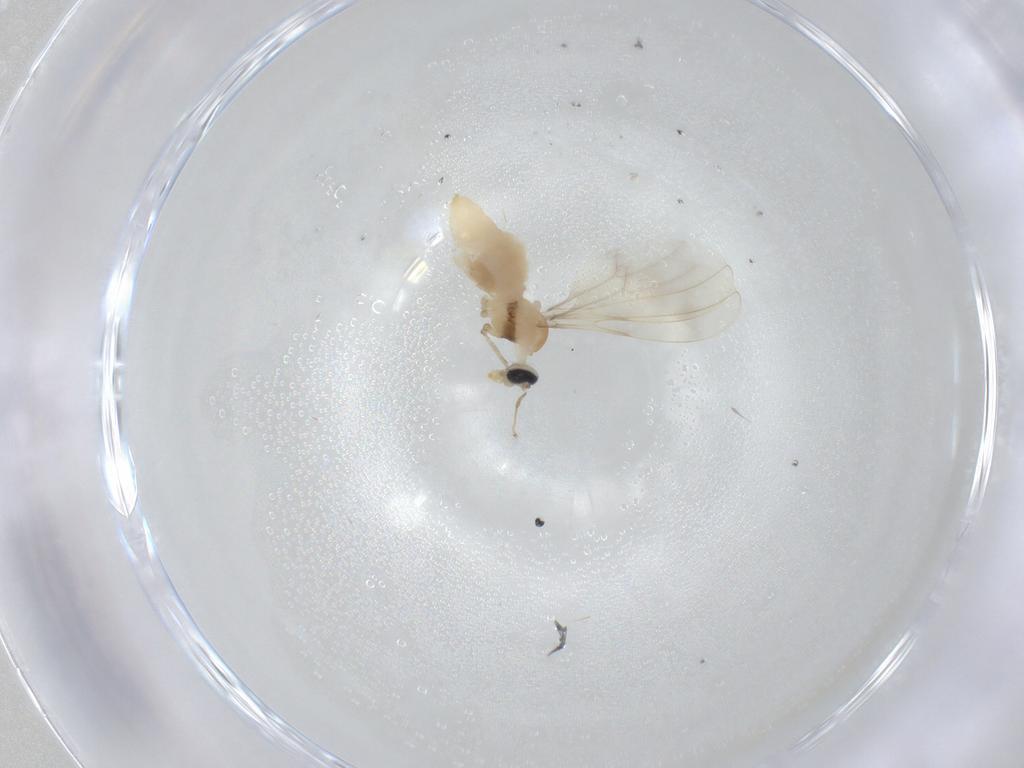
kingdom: Animalia
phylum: Arthropoda
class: Insecta
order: Diptera
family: Cecidomyiidae
